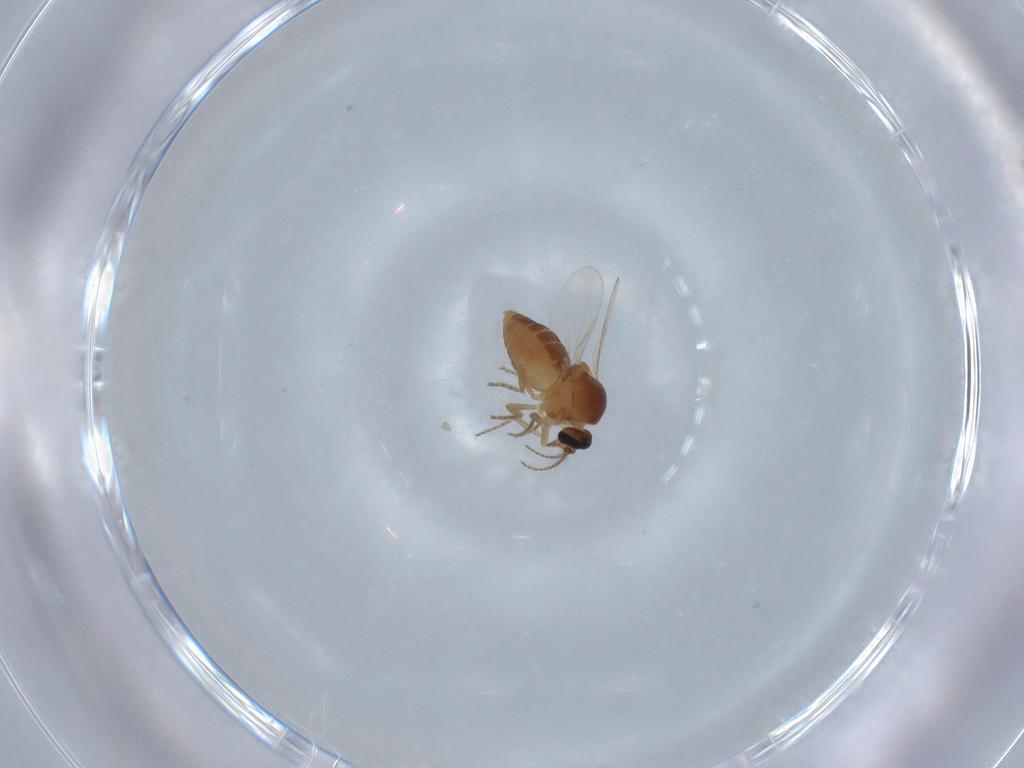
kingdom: Animalia
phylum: Arthropoda
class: Insecta
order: Diptera
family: Ceratopogonidae
